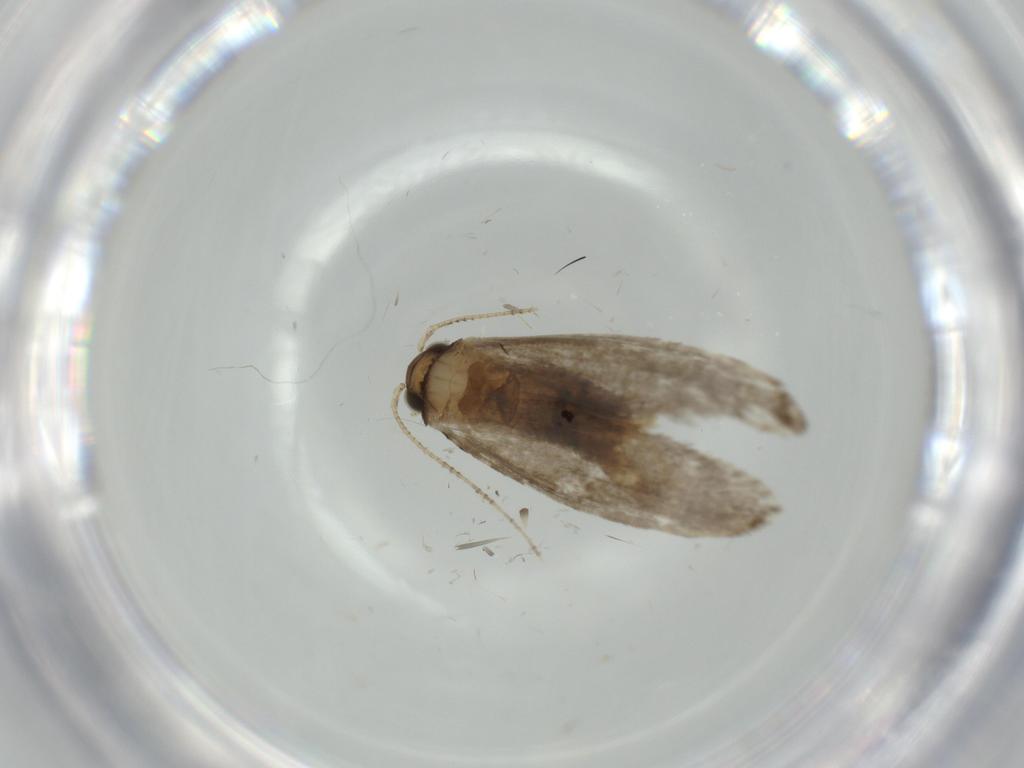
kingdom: Animalia
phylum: Arthropoda
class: Insecta
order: Lepidoptera
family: Tineidae
